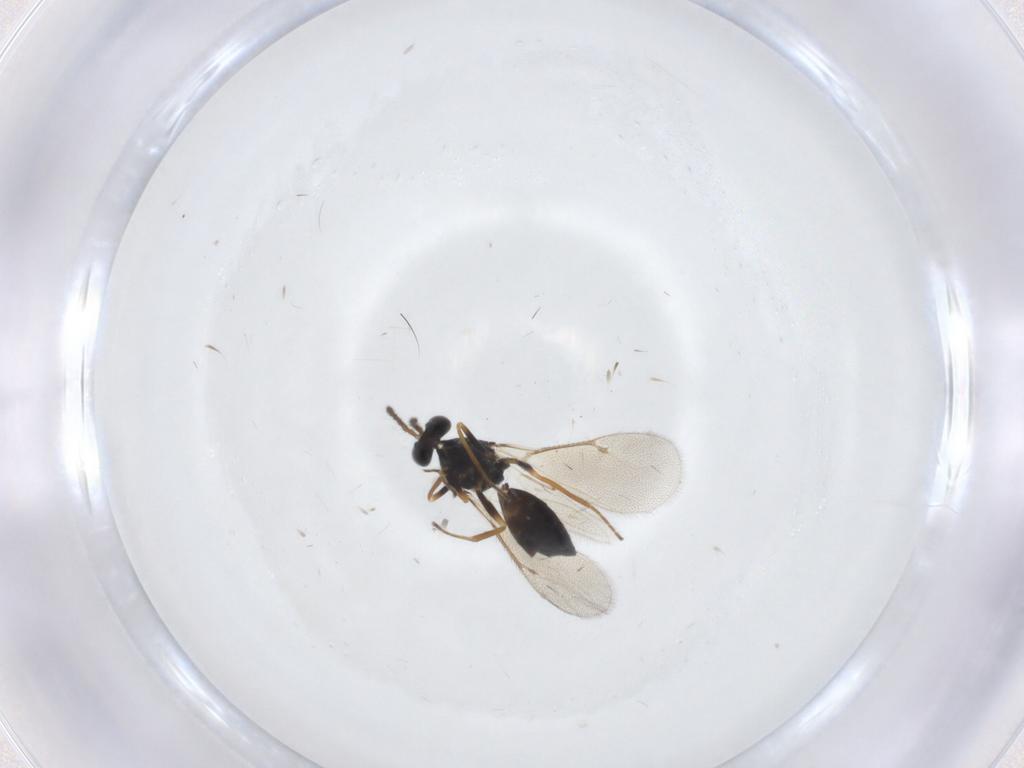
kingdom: Animalia
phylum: Arthropoda
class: Insecta
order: Hymenoptera
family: Eulophidae
